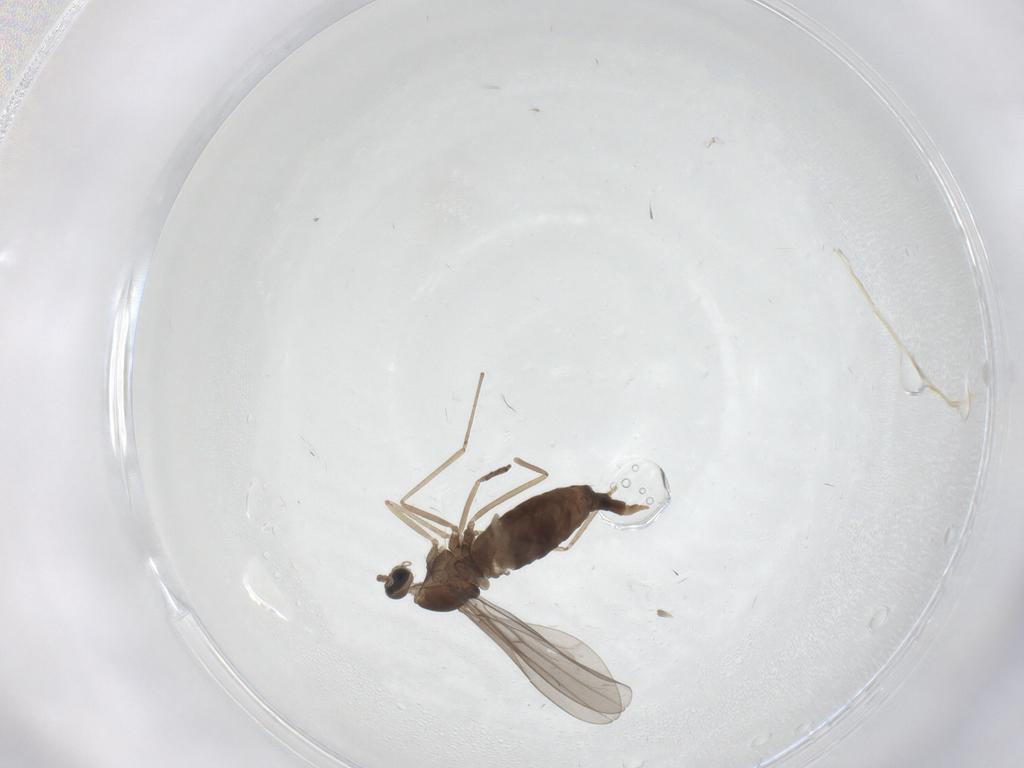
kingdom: Animalia
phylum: Arthropoda
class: Insecta
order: Diptera
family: Cecidomyiidae
